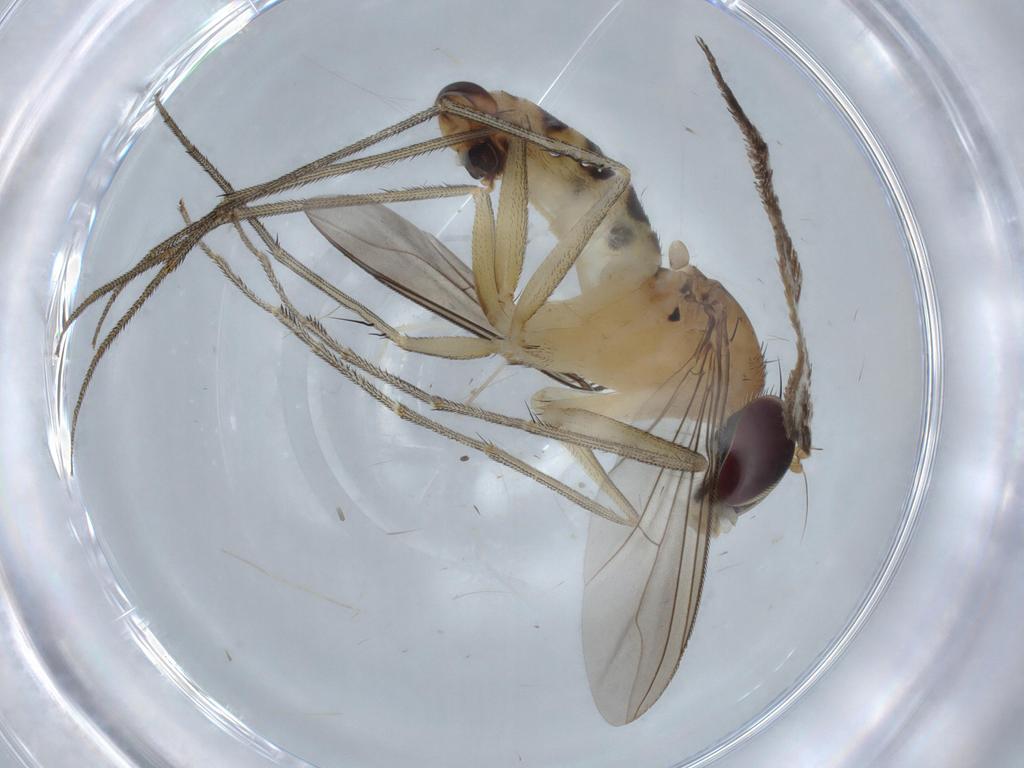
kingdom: Animalia
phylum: Arthropoda
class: Insecta
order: Diptera
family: Dolichopodidae
